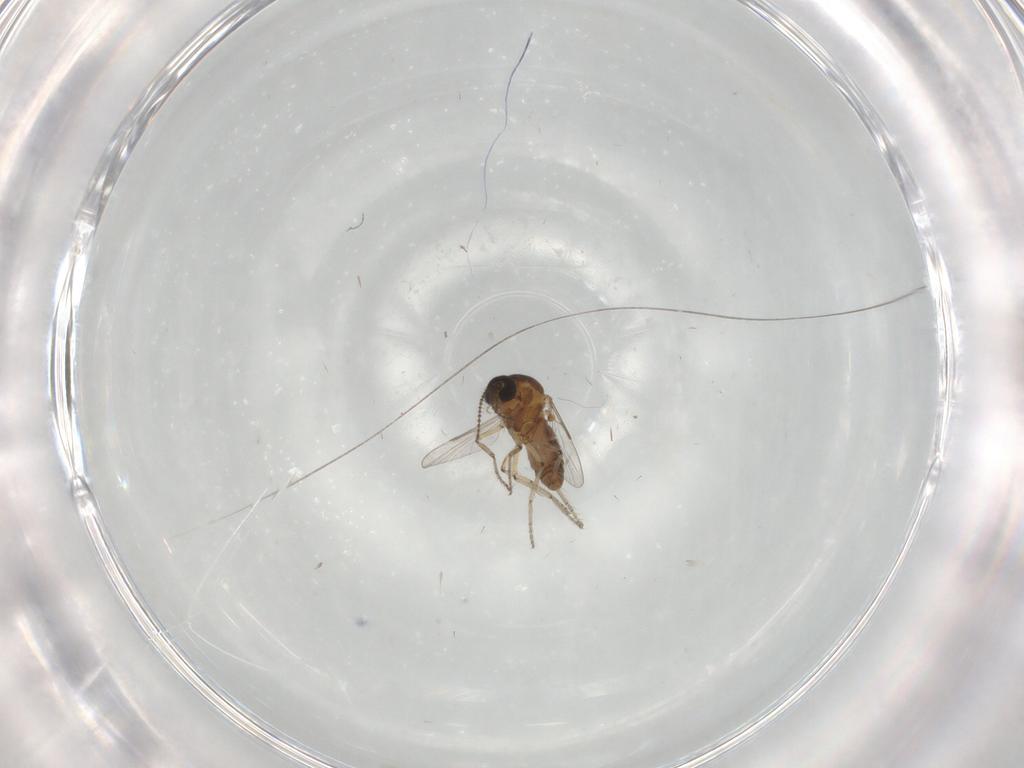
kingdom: Animalia
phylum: Arthropoda
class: Insecta
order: Diptera
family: Ceratopogonidae
